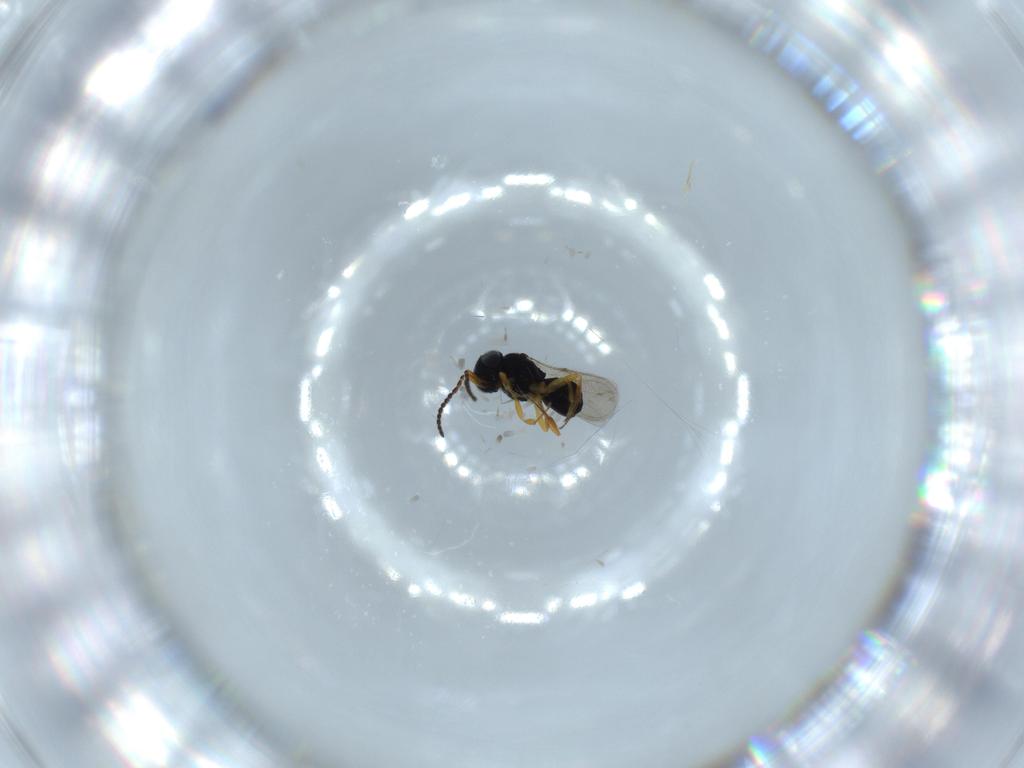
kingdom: Animalia
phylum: Arthropoda
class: Insecta
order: Hymenoptera
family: Scelionidae
